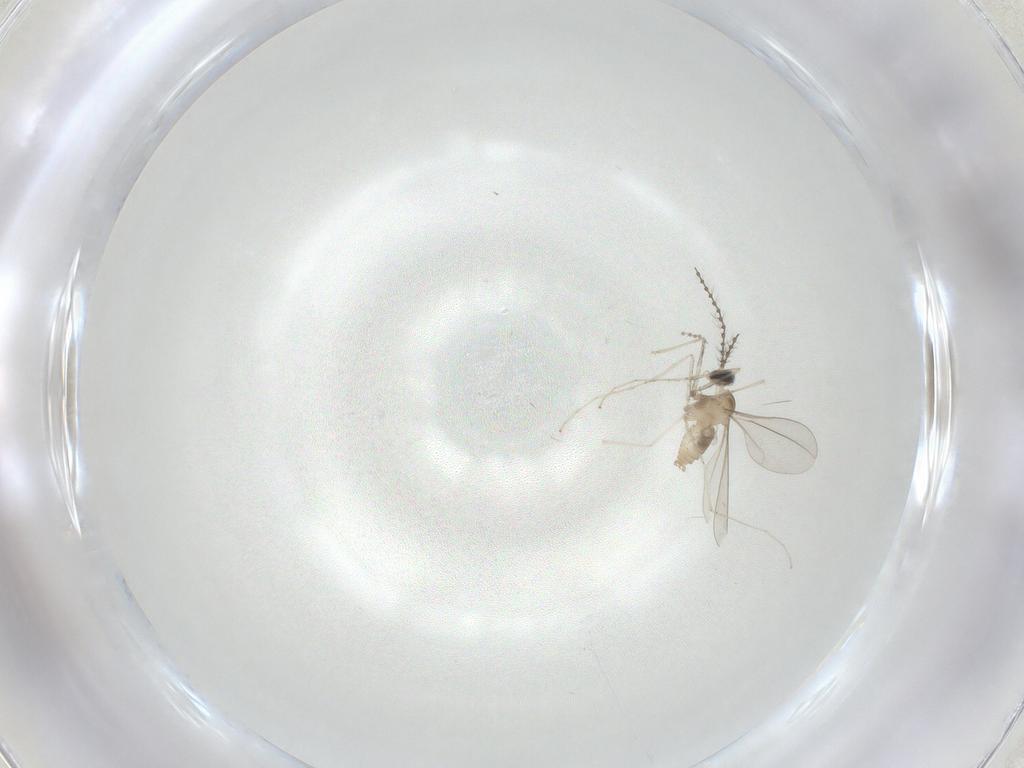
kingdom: Animalia
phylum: Arthropoda
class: Insecta
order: Diptera
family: Cecidomyiidae
